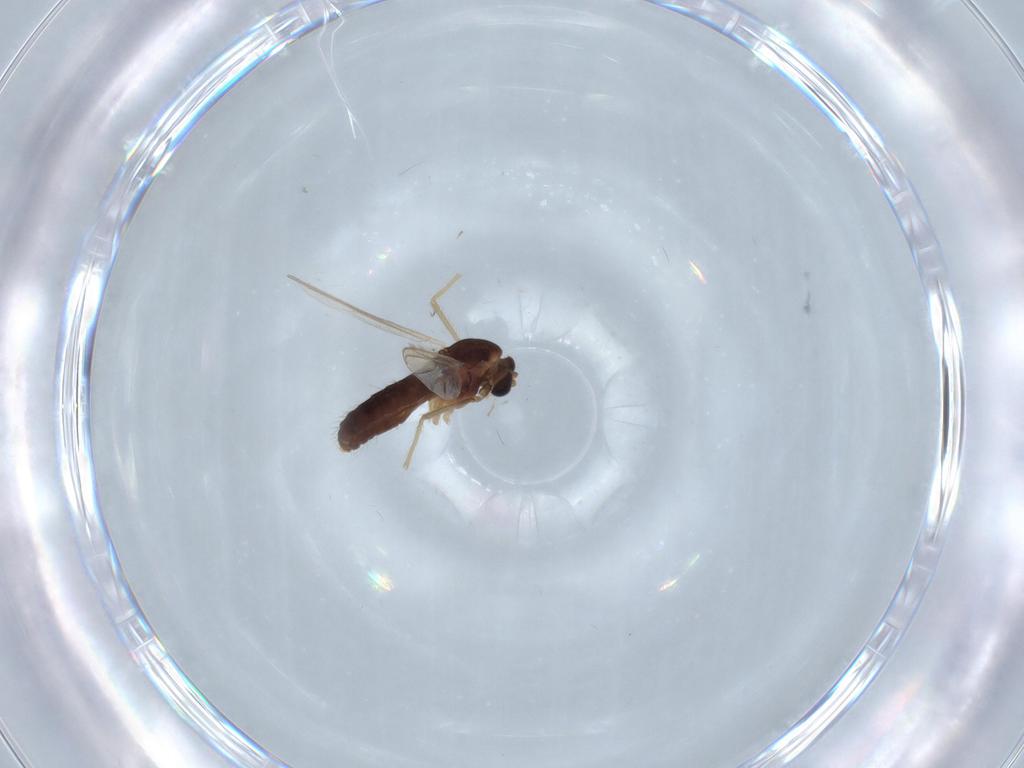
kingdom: Animalia
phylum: Arthropoda
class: Insecta
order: Diptera
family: Chironomidae
